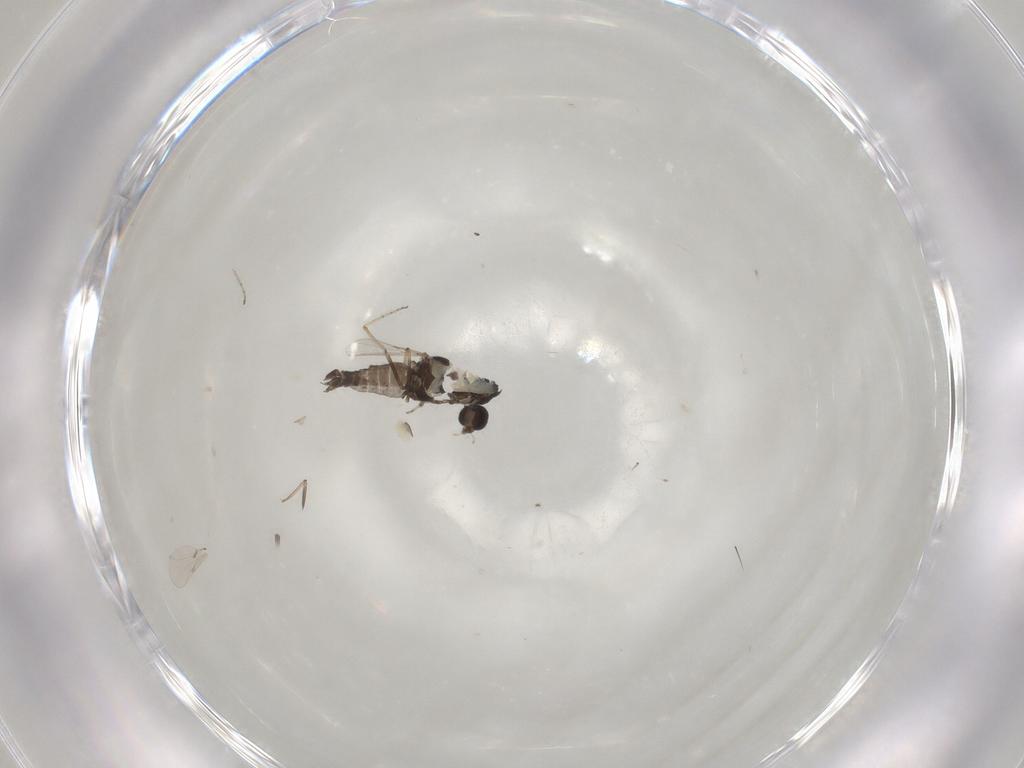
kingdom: Animalia
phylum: Arthropoda
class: Insecta
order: Diptera
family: Ceratopogonidae
